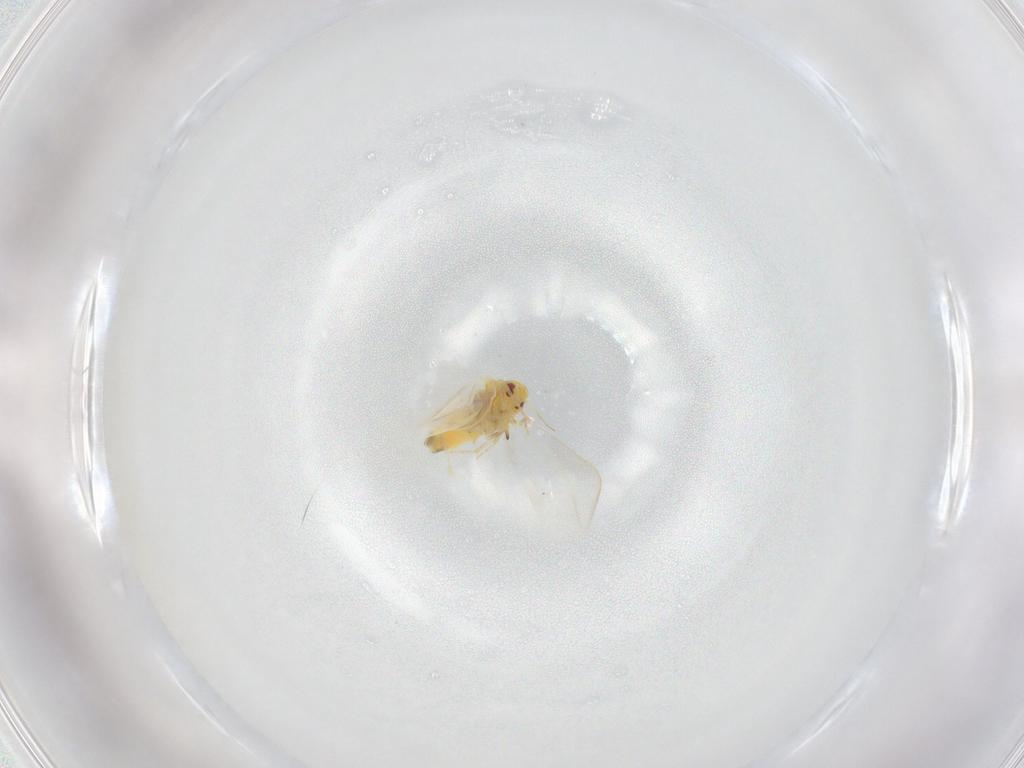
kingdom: Animalia
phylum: Arthropoda
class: Insecta
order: Hemiptera
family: Aleyrodidae
